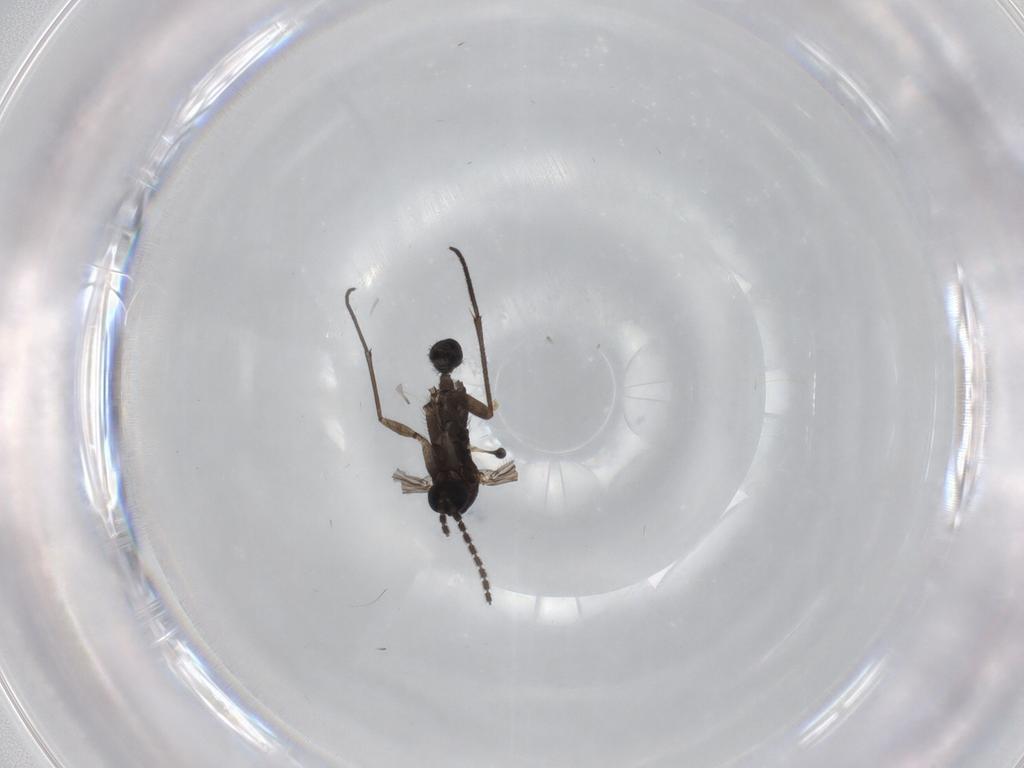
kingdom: Animalia
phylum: Arthropoda
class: Insecta
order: Diptera
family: Sciaridae
